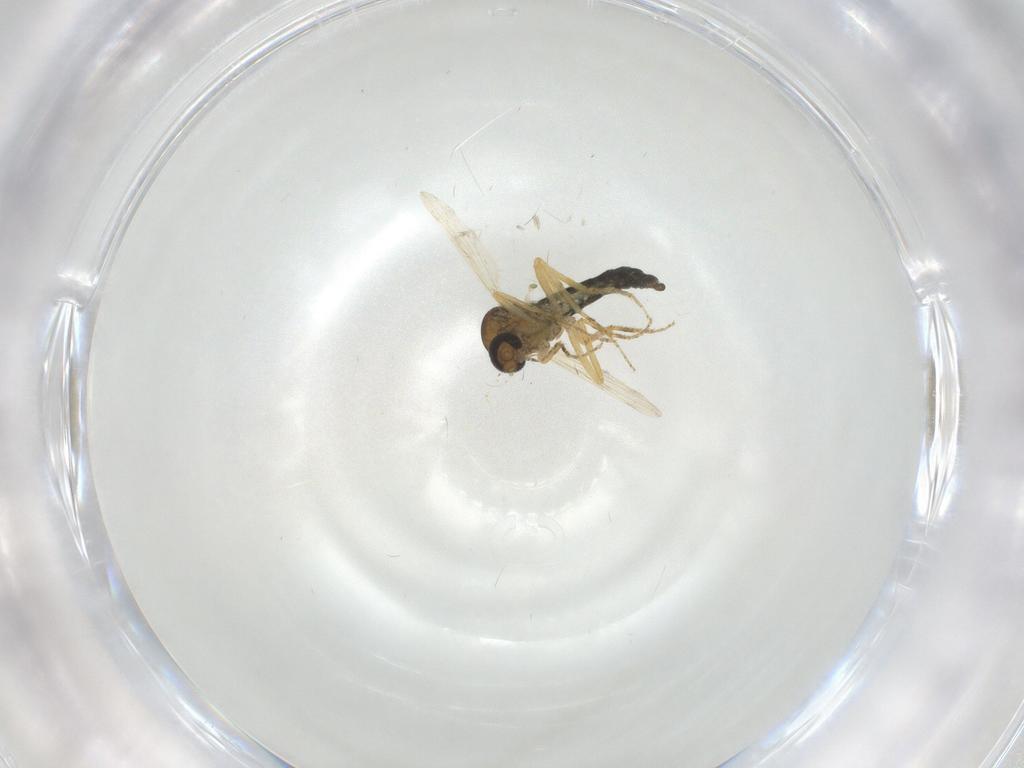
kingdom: Animalia
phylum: Arthropoda
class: Insecta
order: Diptera
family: Ceratopogonidae
